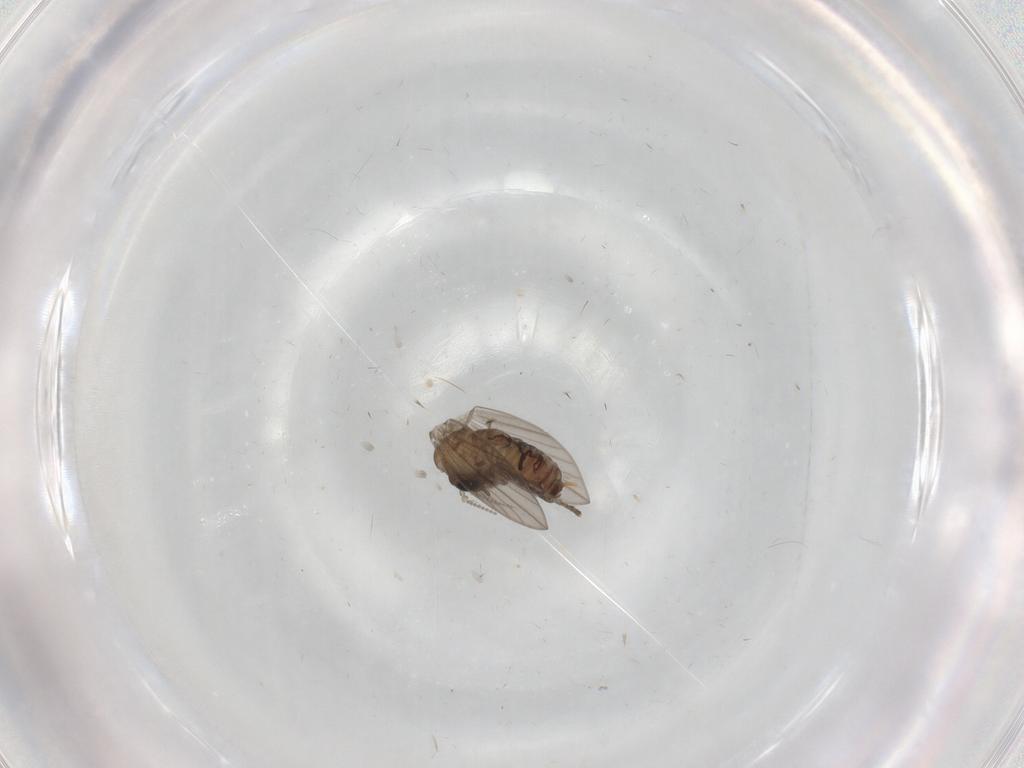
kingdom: Animalia
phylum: Arthropoda
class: Insecta
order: Diptera
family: Psychodidae
